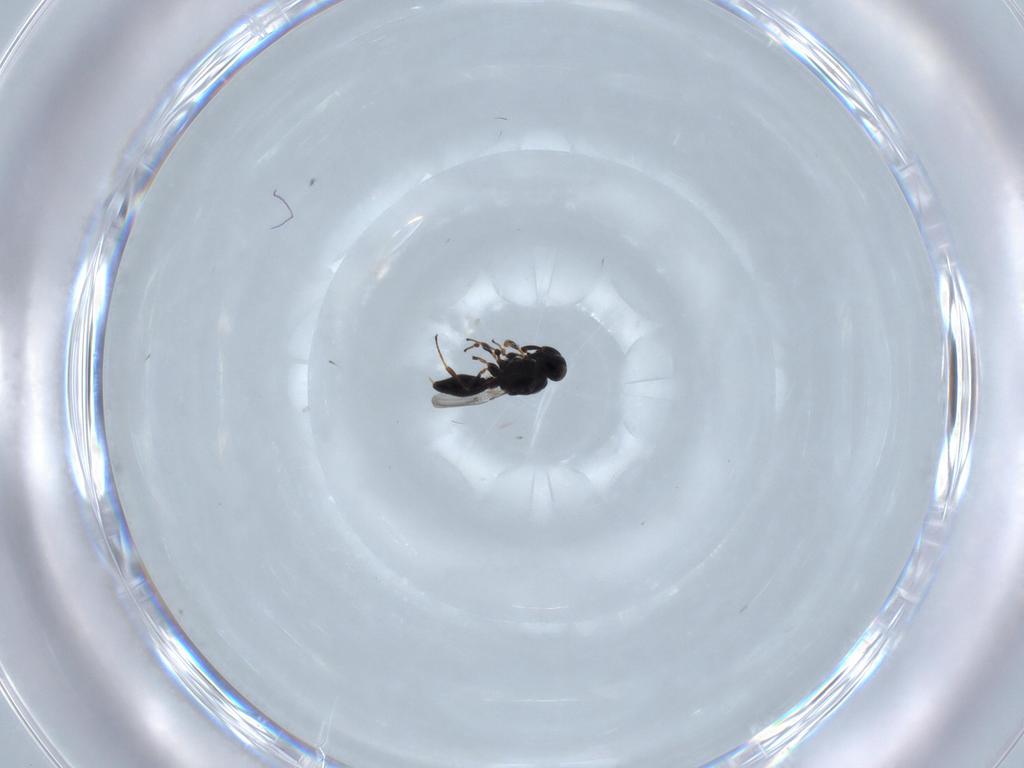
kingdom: Animalia
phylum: Arthropoda
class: Insecta
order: Hymenoptera
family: Platygastridae
